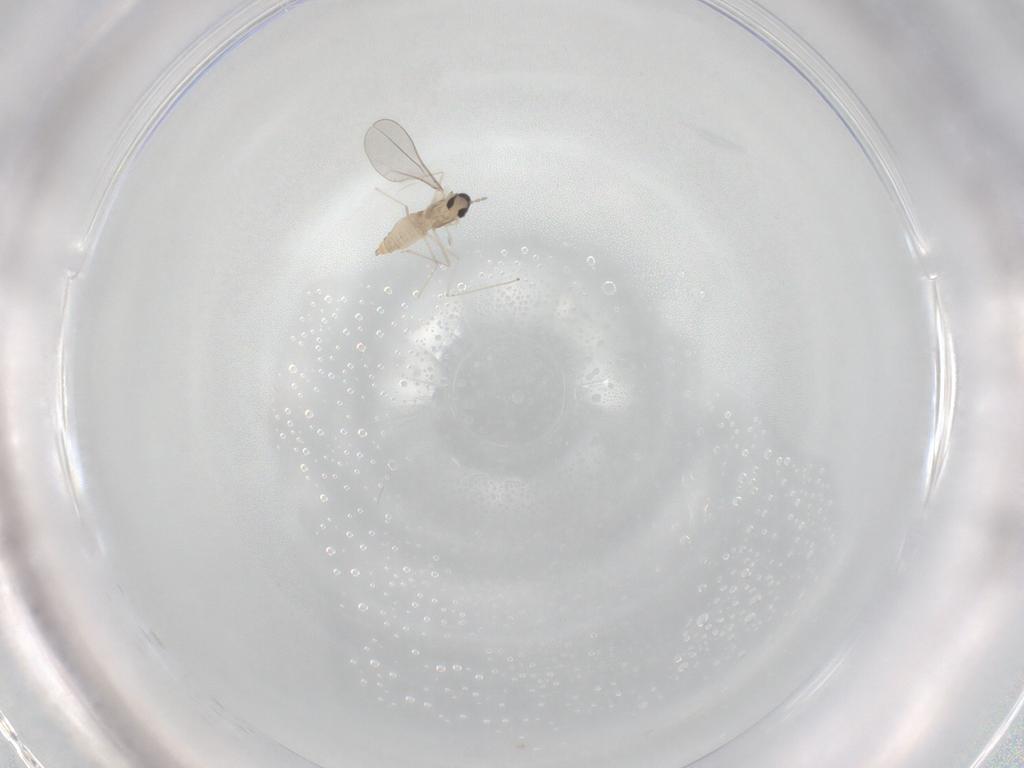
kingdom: Animalia
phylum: Arthropoda
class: Insecta
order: Diptera
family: Cecidomyiidae
